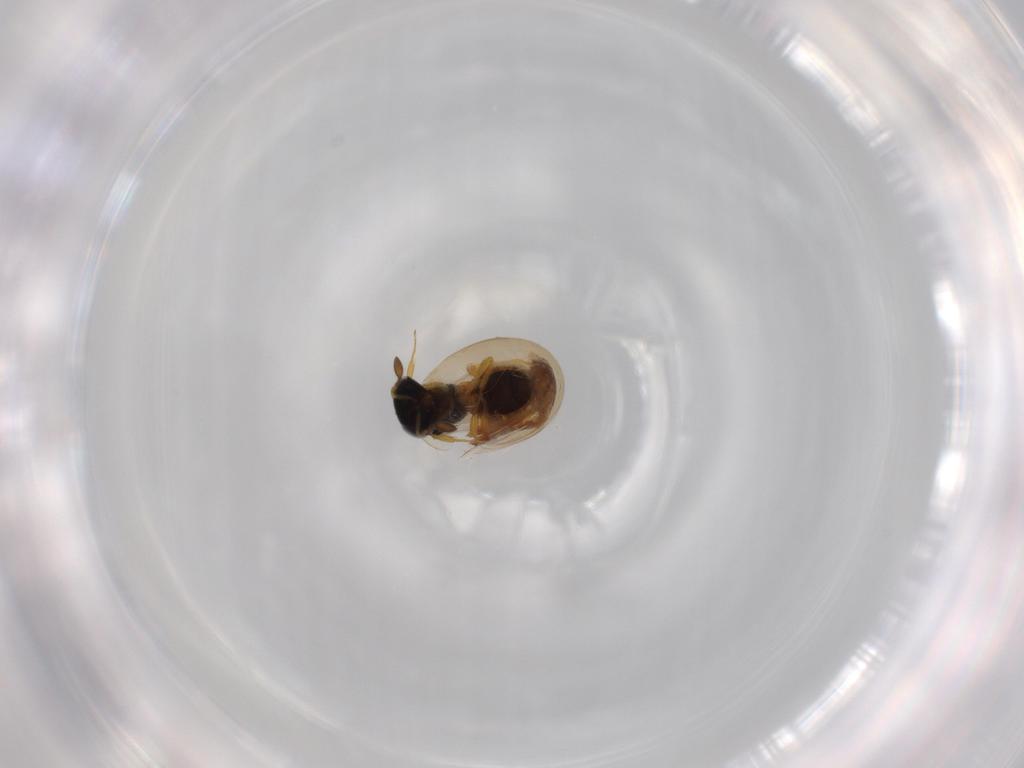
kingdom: Animalia
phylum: Arthropoda
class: Insecta
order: Hymenoptera
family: Scelionidae
